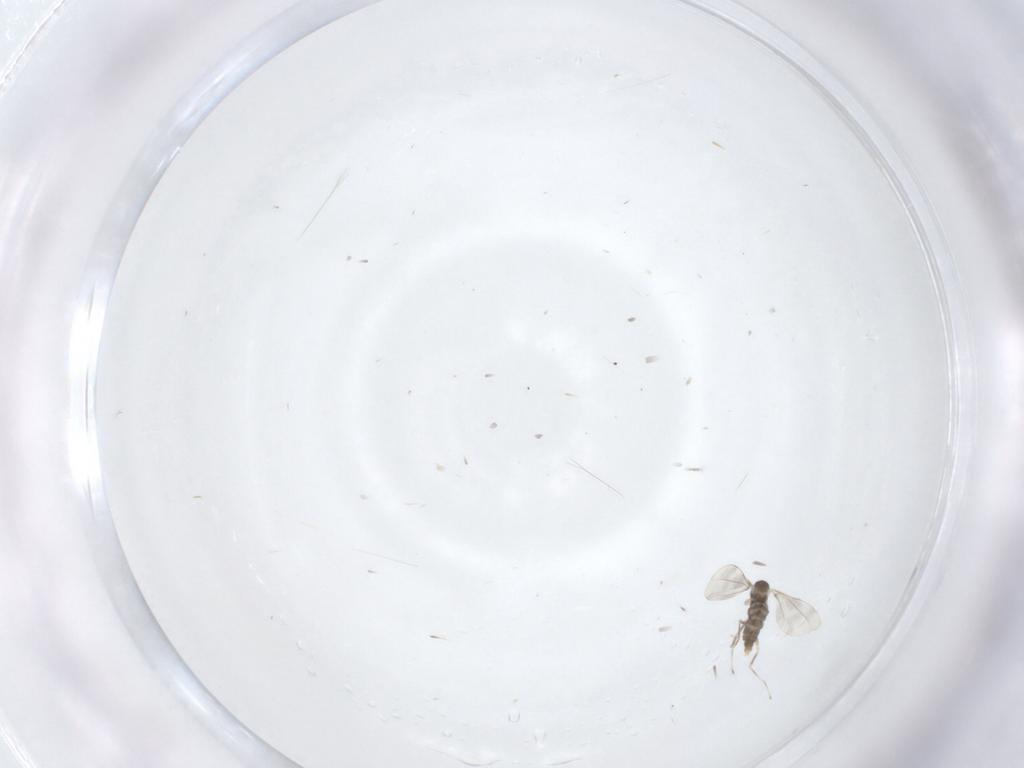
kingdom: Animalia
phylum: Arthropoda
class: Insecta
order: Diptera
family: Cecidomyiidae
